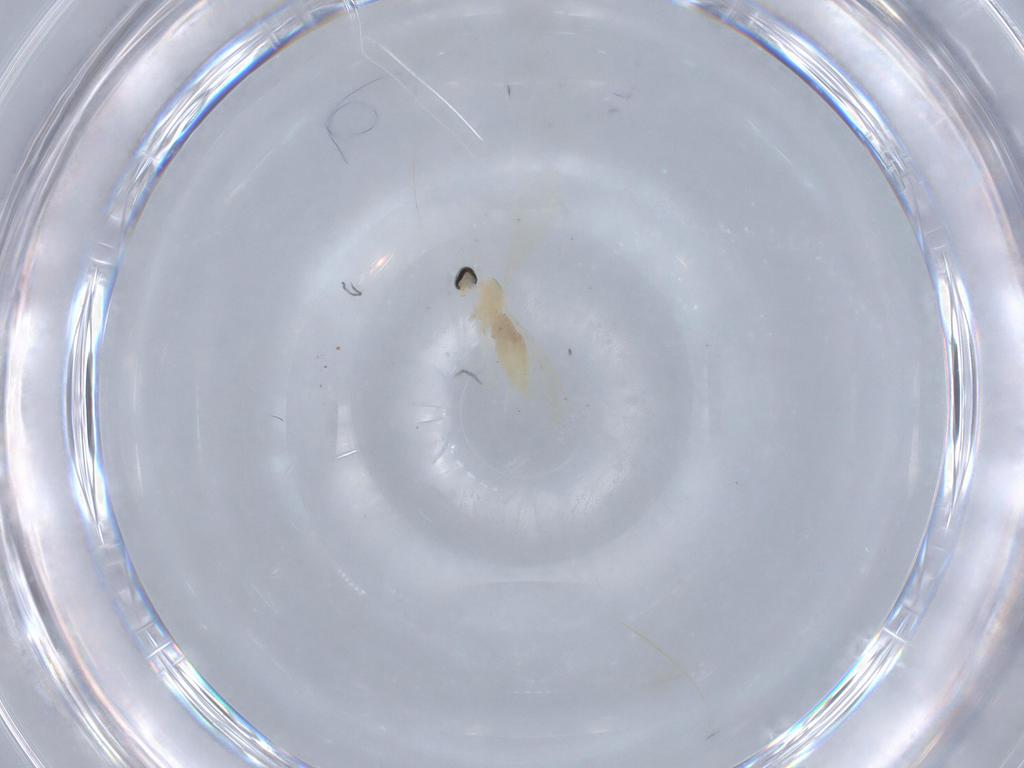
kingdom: Animalia
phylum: Arthropoda
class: Insecta
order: Diptera
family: Cecidomyiidae
